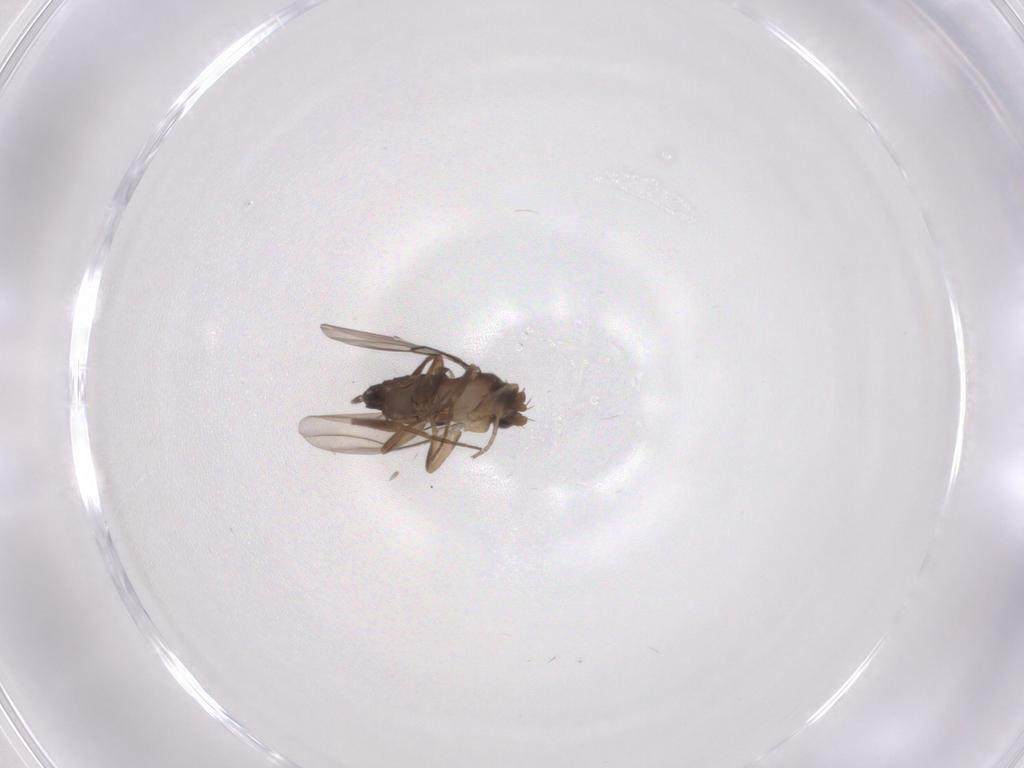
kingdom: Animalia
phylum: Arthropoda
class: Insecta
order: Diptera
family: Phoridae
